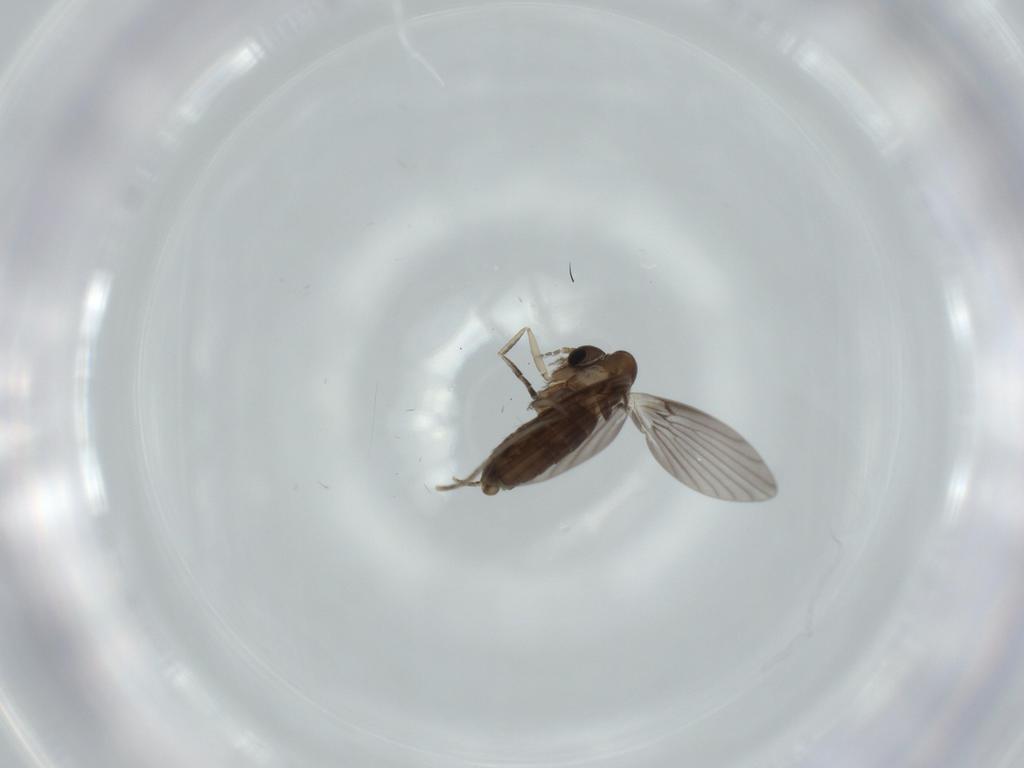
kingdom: Animalia
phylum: Arthropoda
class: Insecta
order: Diptera
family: Psychodidae
